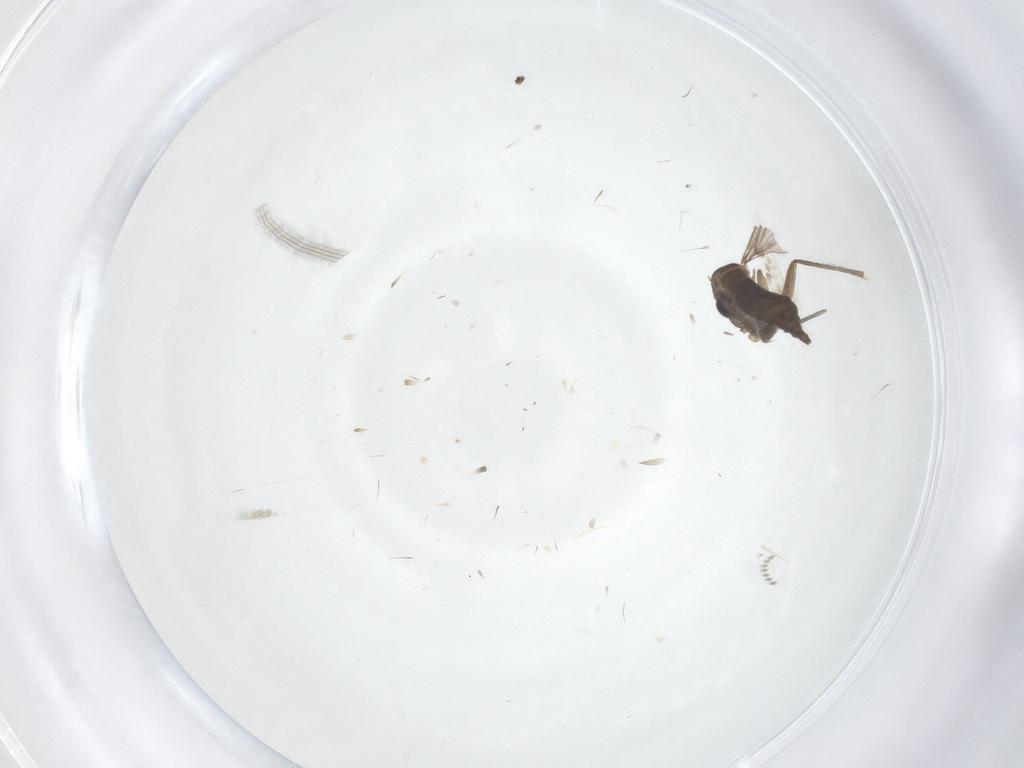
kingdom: Animalia
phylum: Arthropoda
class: Insecta
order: Diptera
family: Sciaridae
